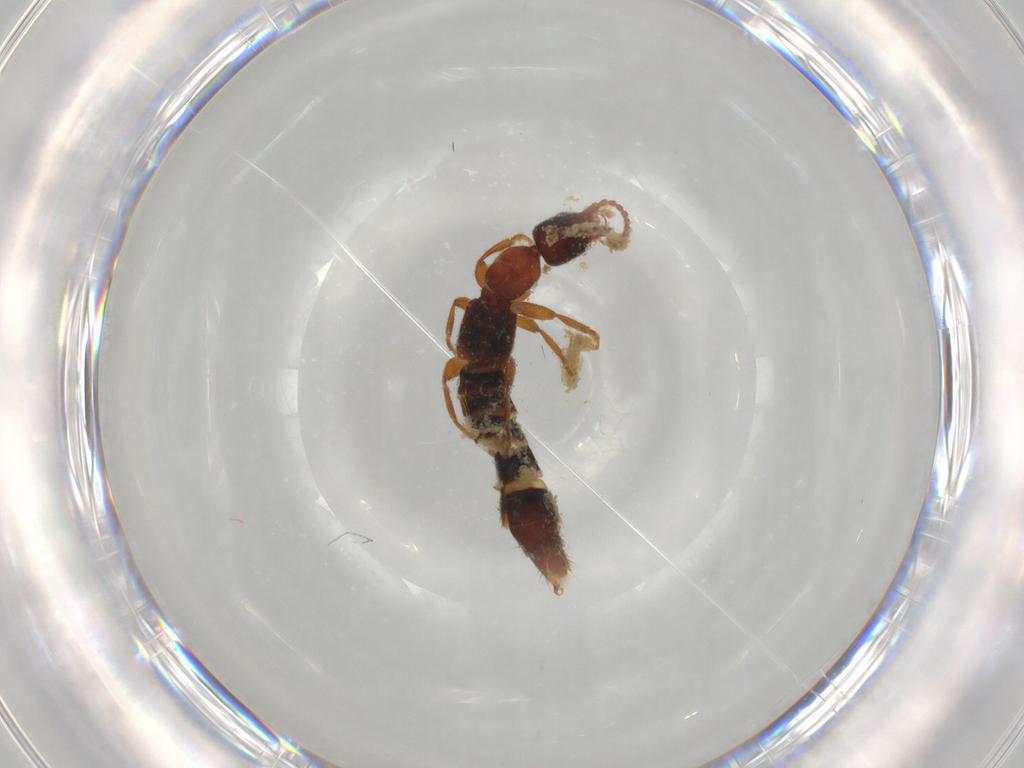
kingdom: Animalia
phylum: Arthropoda
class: Insecta
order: Coleoptera
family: Staphylinidae
